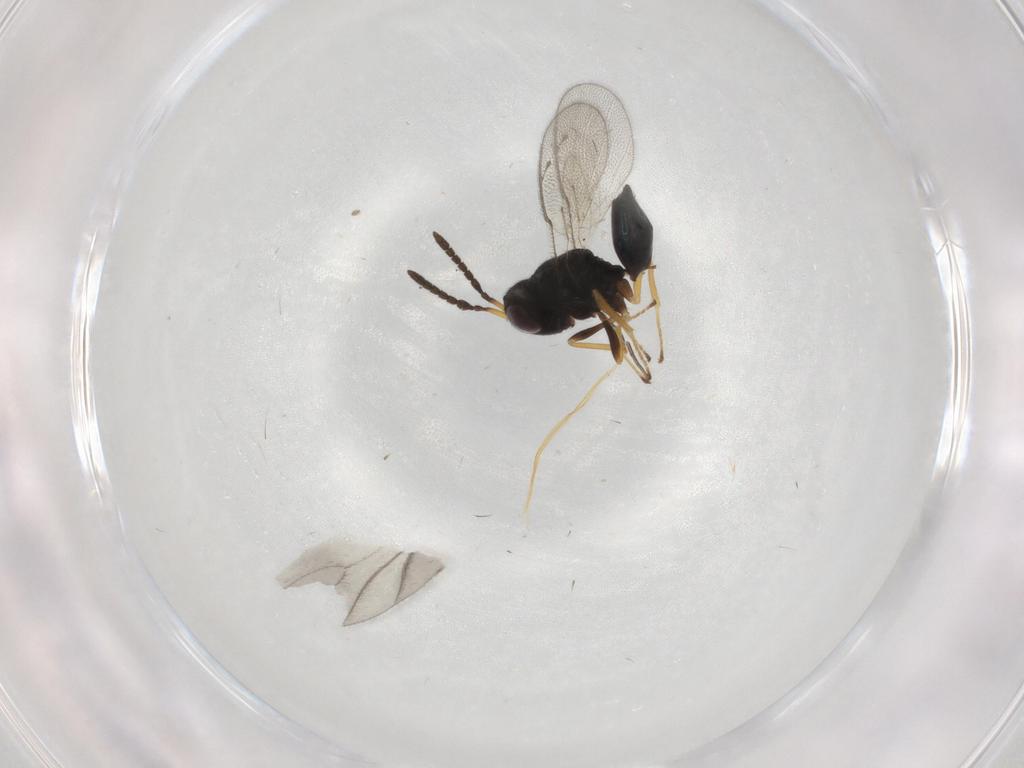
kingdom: Animalia
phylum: Arthropoda
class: Insecta
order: Hymenoptera
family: Pteromalidae
